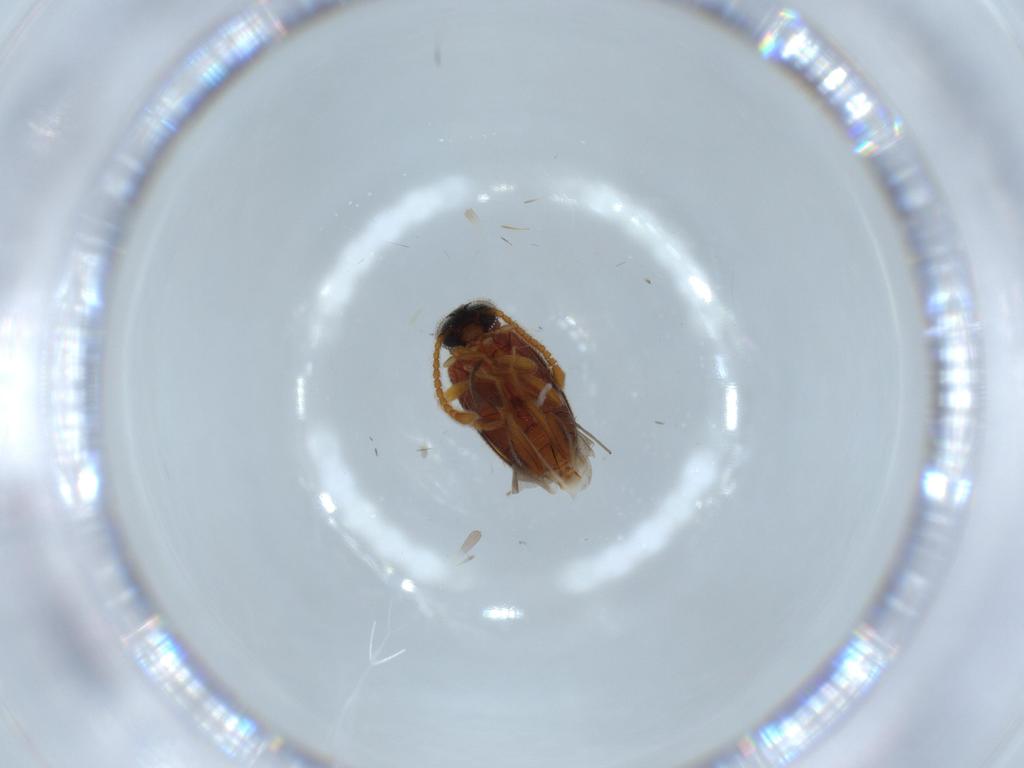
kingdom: Animalia
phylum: Arthropoda
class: Insecta
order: Coleoptera
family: Aderidae
